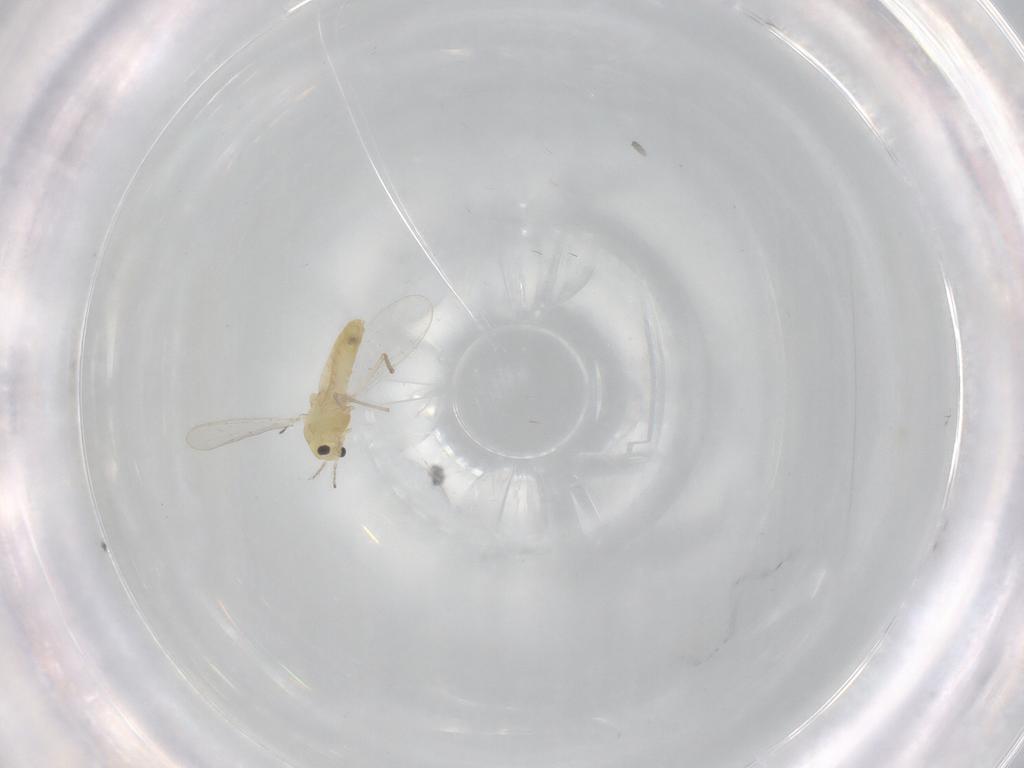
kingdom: Animalia
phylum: Arthropoda
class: Insecta
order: Diptera
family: Chironomidae
